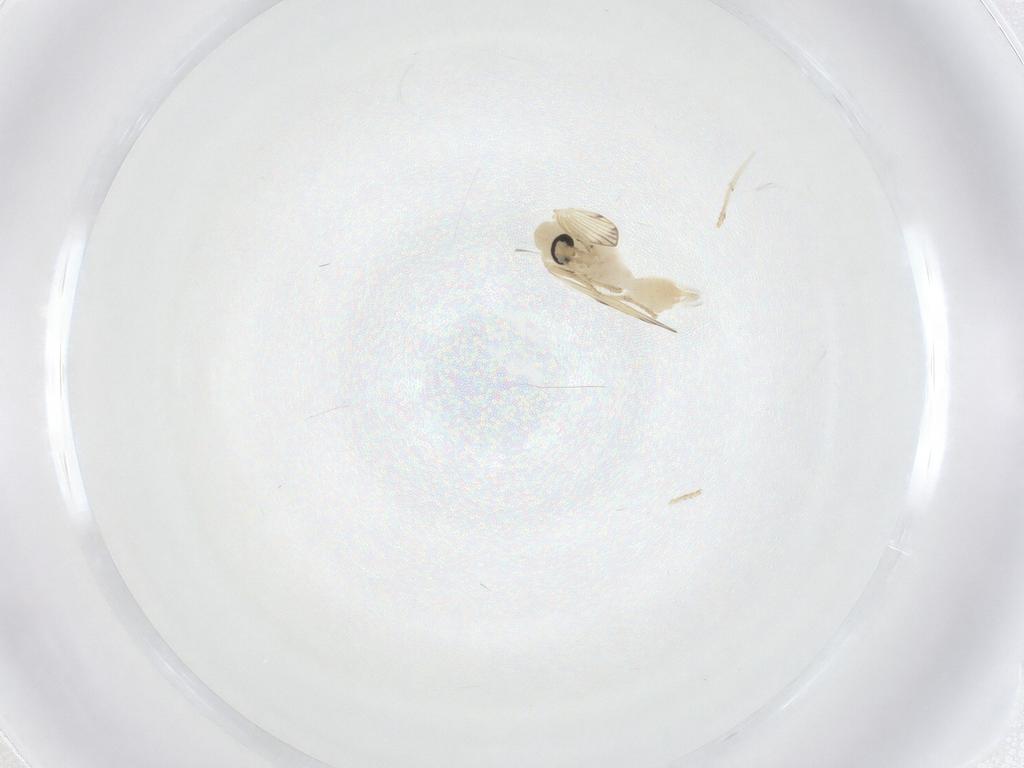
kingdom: Animalia
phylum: Arthropoda
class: Insecta
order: Diptera
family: Psychodidae
